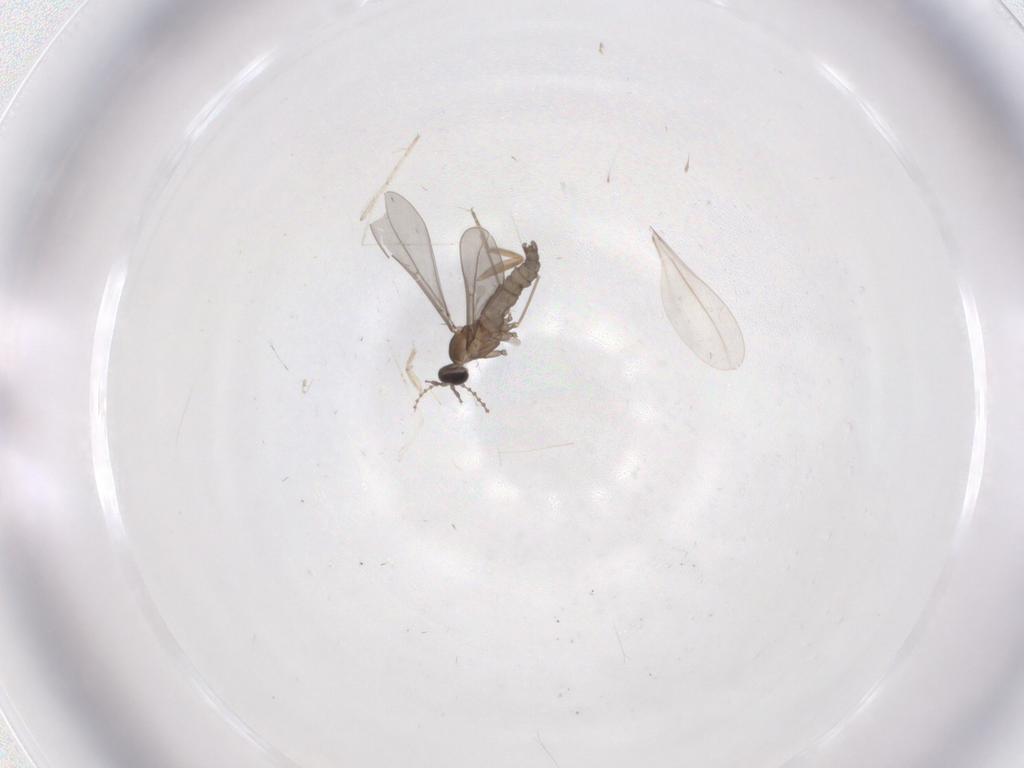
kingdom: Animalia
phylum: Arthropoda
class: Insecta
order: Diptera
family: Cecidomyiidae
